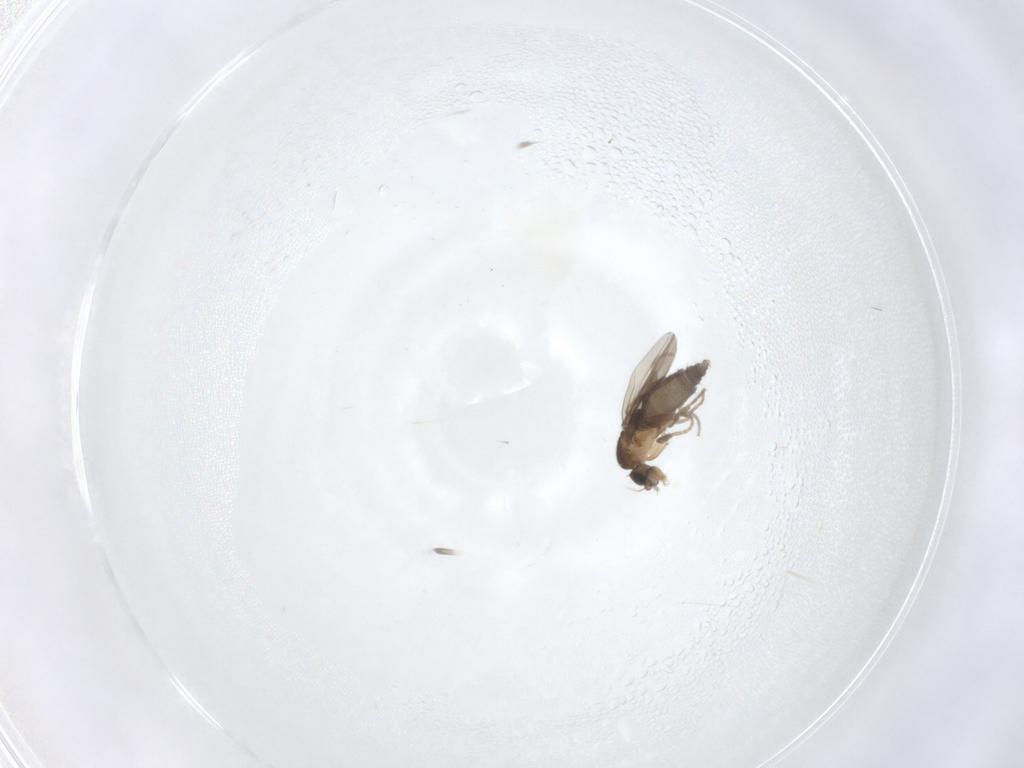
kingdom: Animalia
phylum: Arthropoda
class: Insecta
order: Diptera
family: Cecidomyiidae
